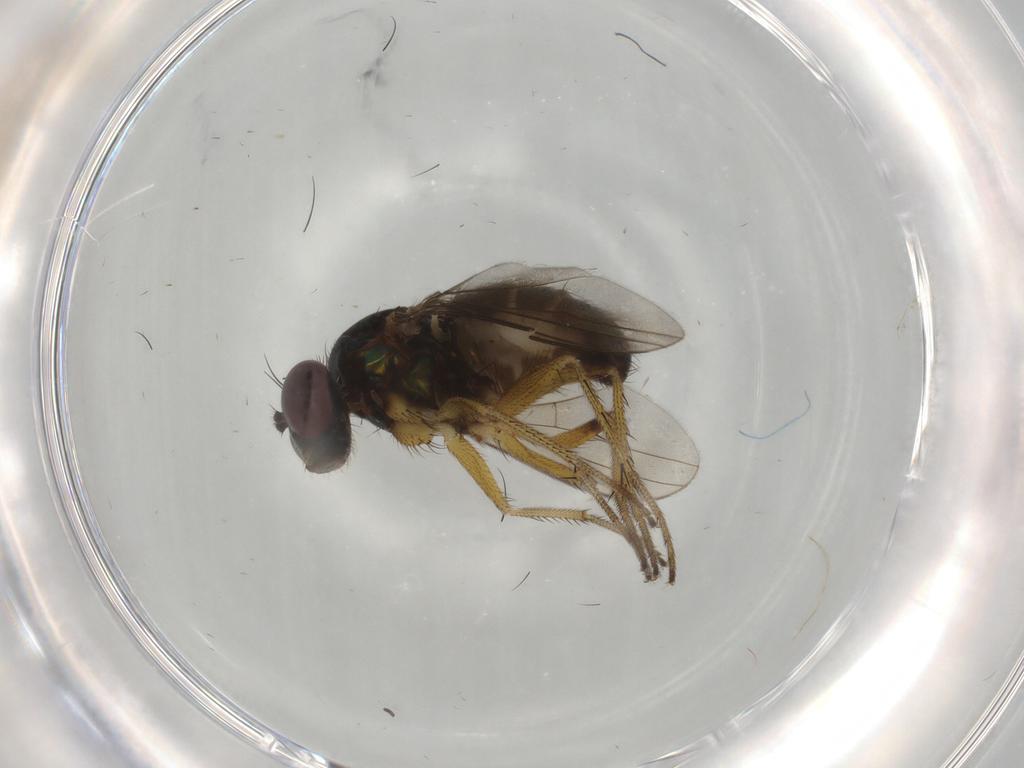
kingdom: Animalia
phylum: Arthropoda
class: Insecta
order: Diptera
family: Dolichopodidae
